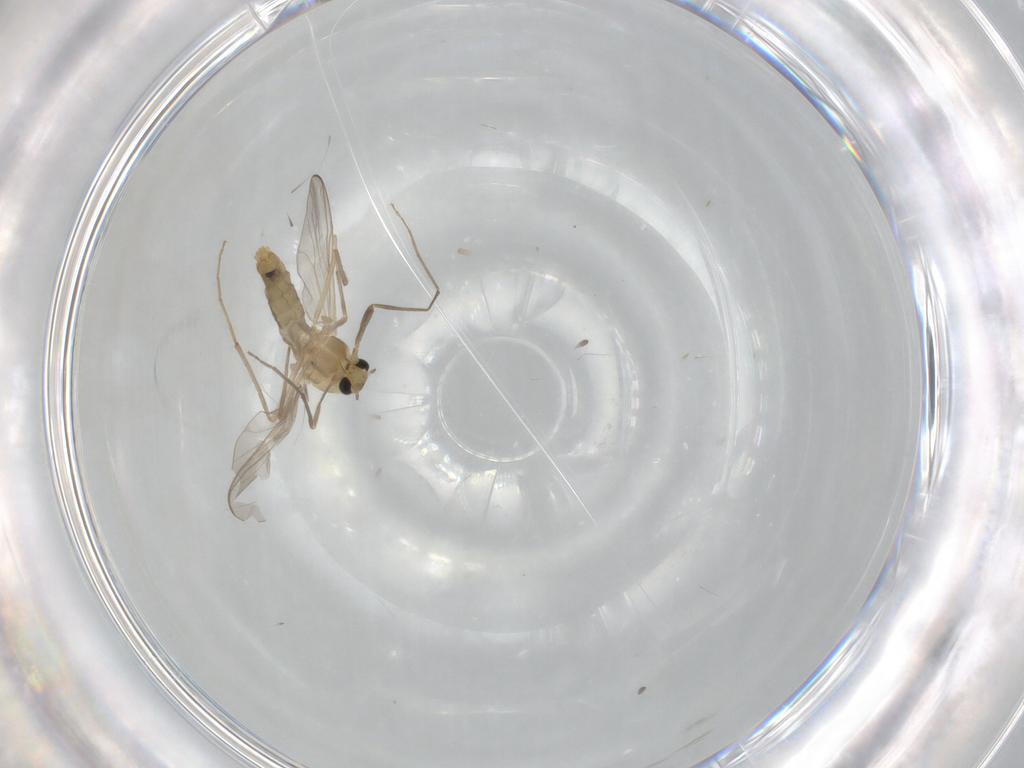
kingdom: Animalia
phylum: Arthropoda
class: Insecta
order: Diptera
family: Chironomidae
